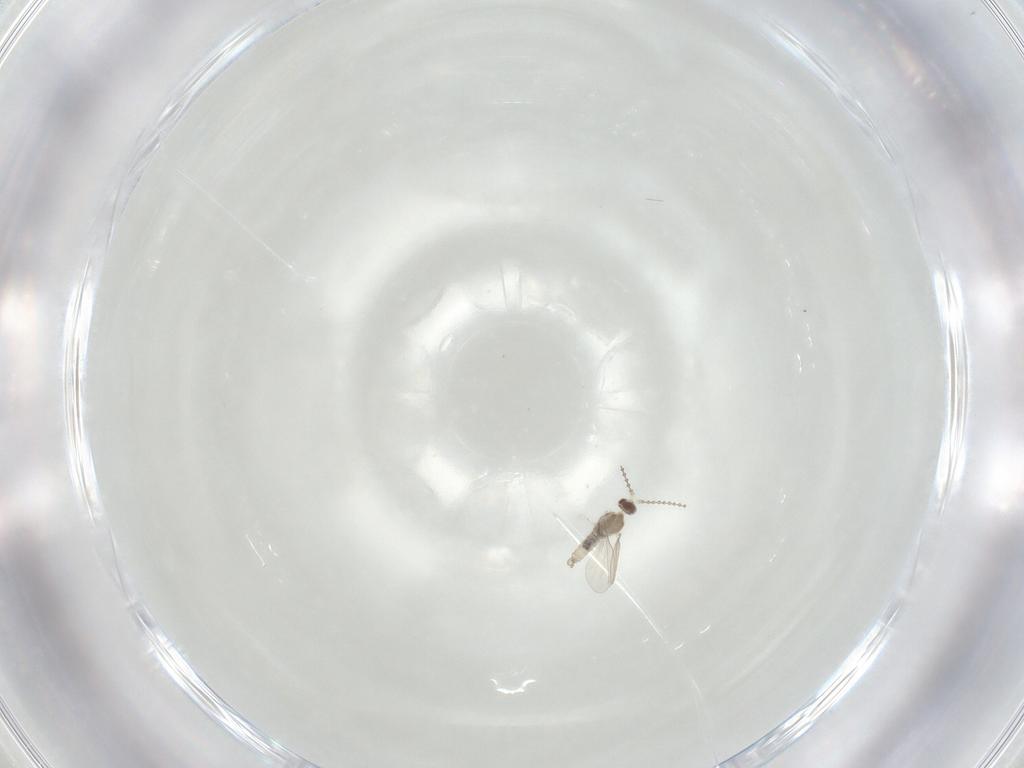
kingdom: Animalia
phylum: Arthropoda
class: Insecta
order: Diptera
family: Cecidomyiidae
